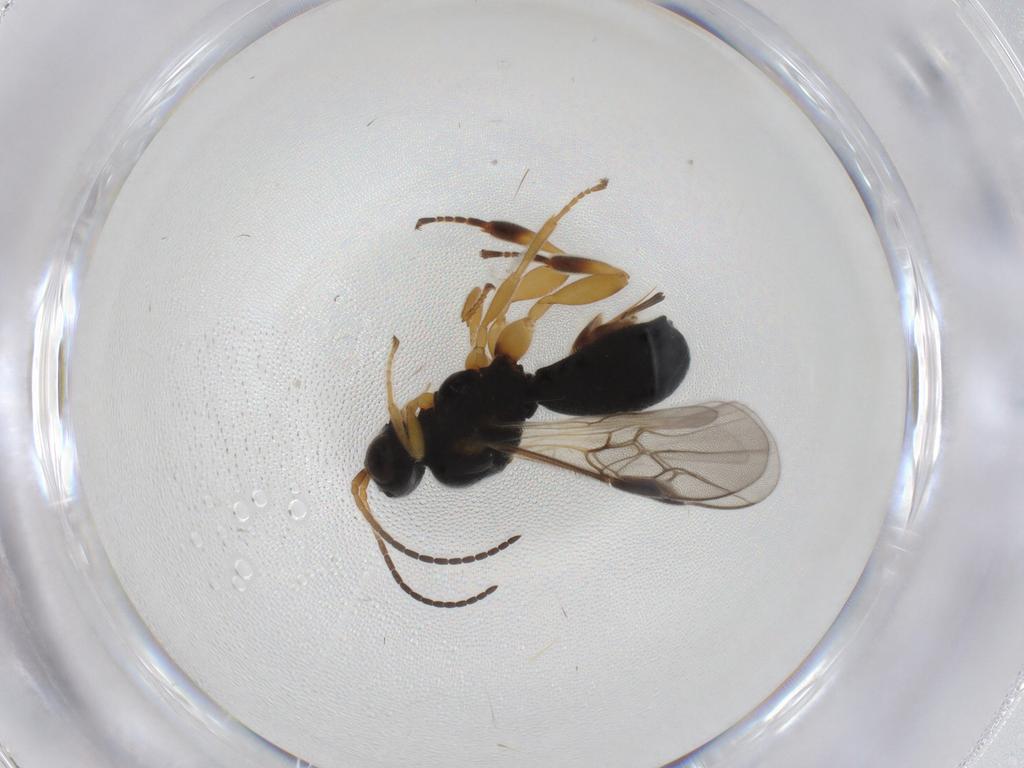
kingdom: Animalia
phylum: Arthropoda
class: Insecta
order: Hymenoptera
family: Braconidae
